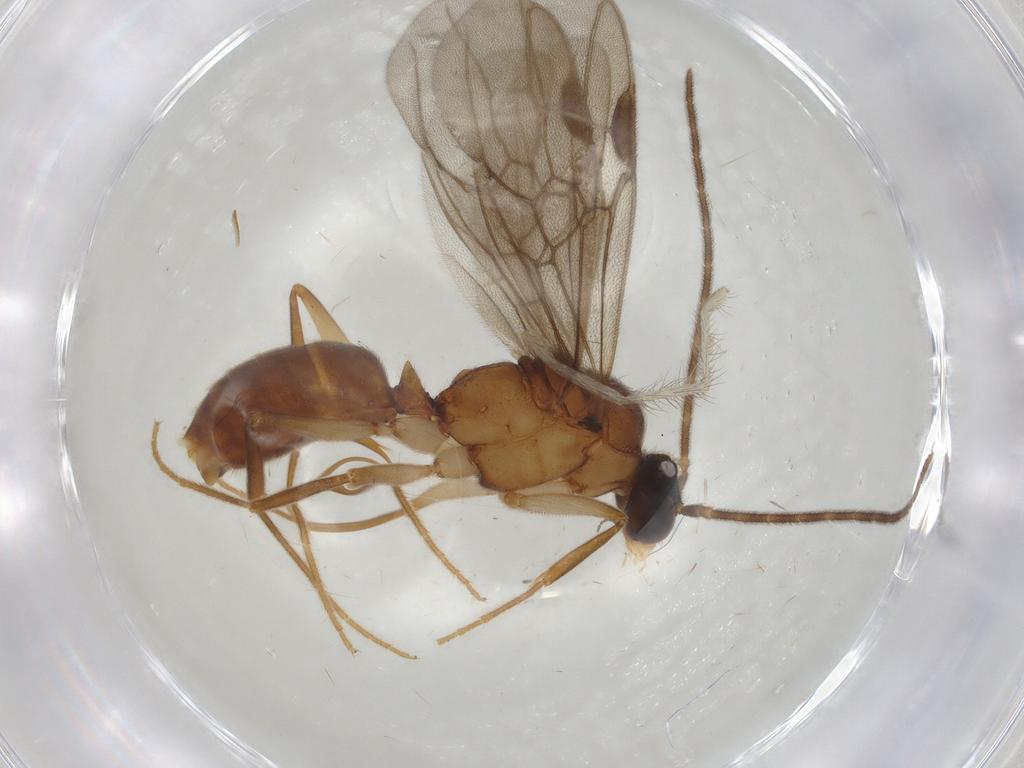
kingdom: Animalia
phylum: Arthropoda
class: Insecta
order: Hymenoptera
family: Formicidae
